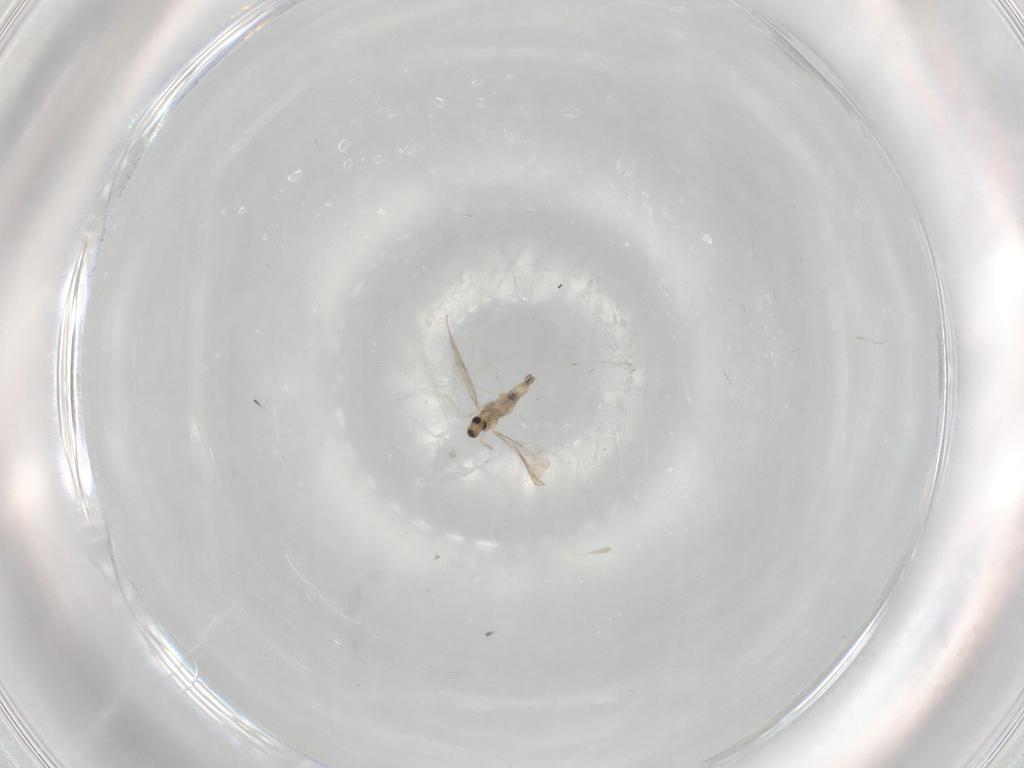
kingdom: Animalia
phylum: Arthropoda
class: Insecta
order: Diptera
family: Cecidomyiidae
